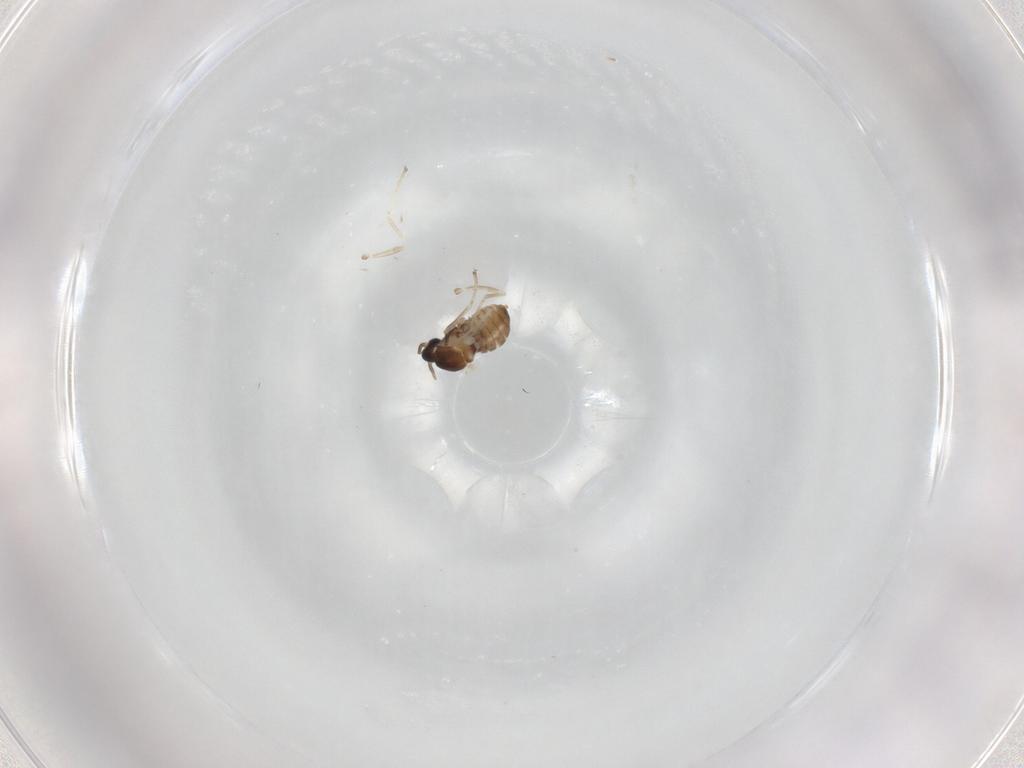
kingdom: Animalia
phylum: Arthropoda
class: Insecta
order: Diptera
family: Cecidomyiidae
